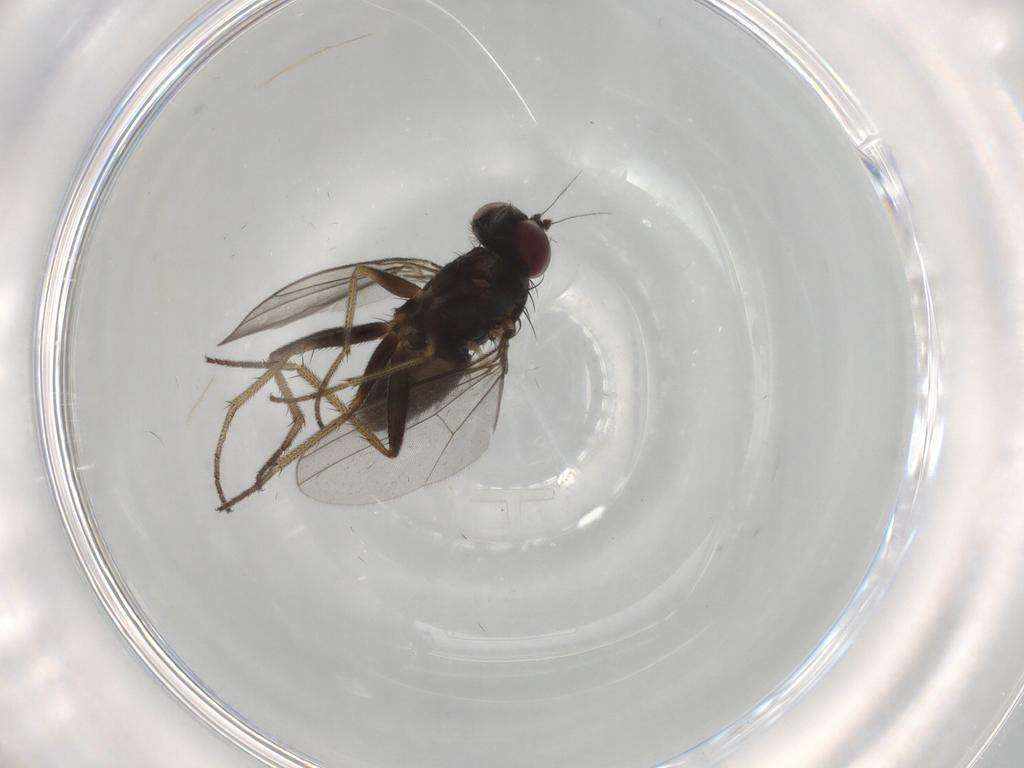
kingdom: Animalia
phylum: Arthropoda
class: Insecta
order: Diptera
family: Dolichopodidae
